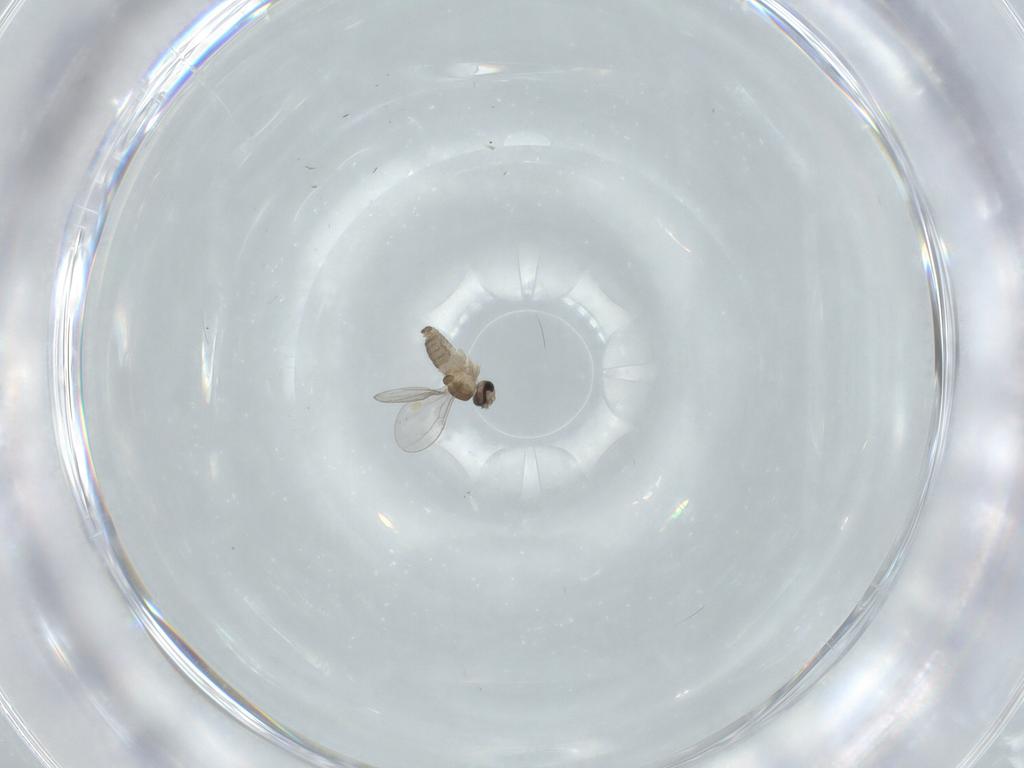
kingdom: Animalia
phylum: Arthropoda
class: Insecta
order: Diptera
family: Cecidomyiidae
